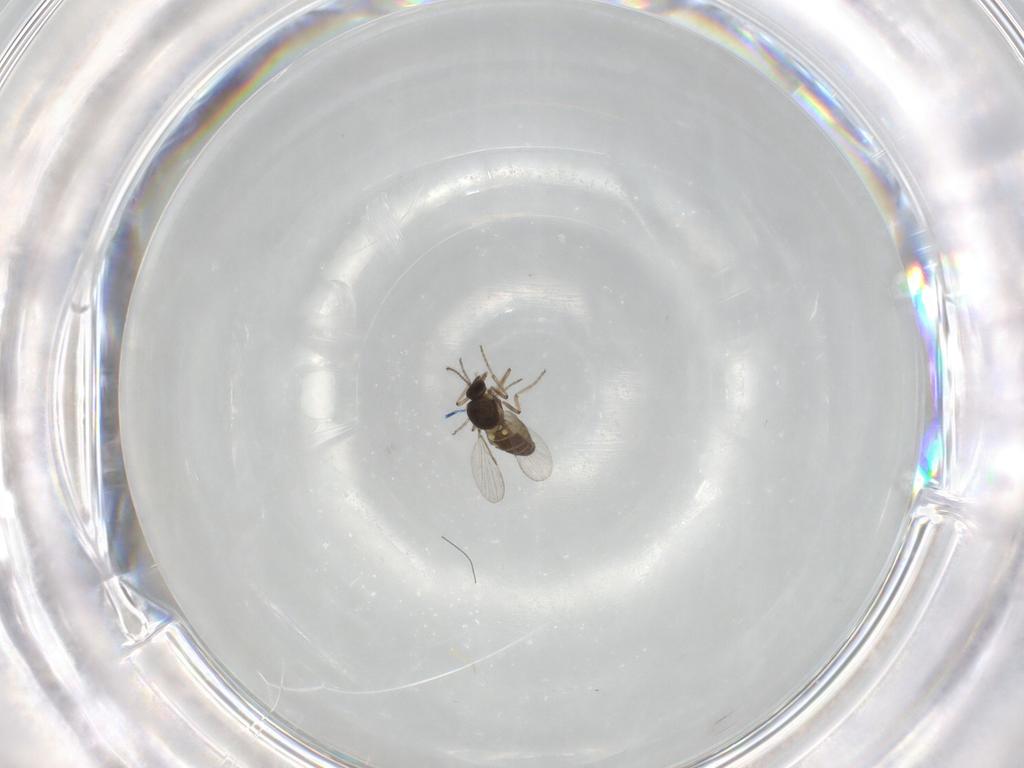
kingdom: Animalia
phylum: Arthropoda
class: Insecta
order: Diptera
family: Ceratopogonidae
